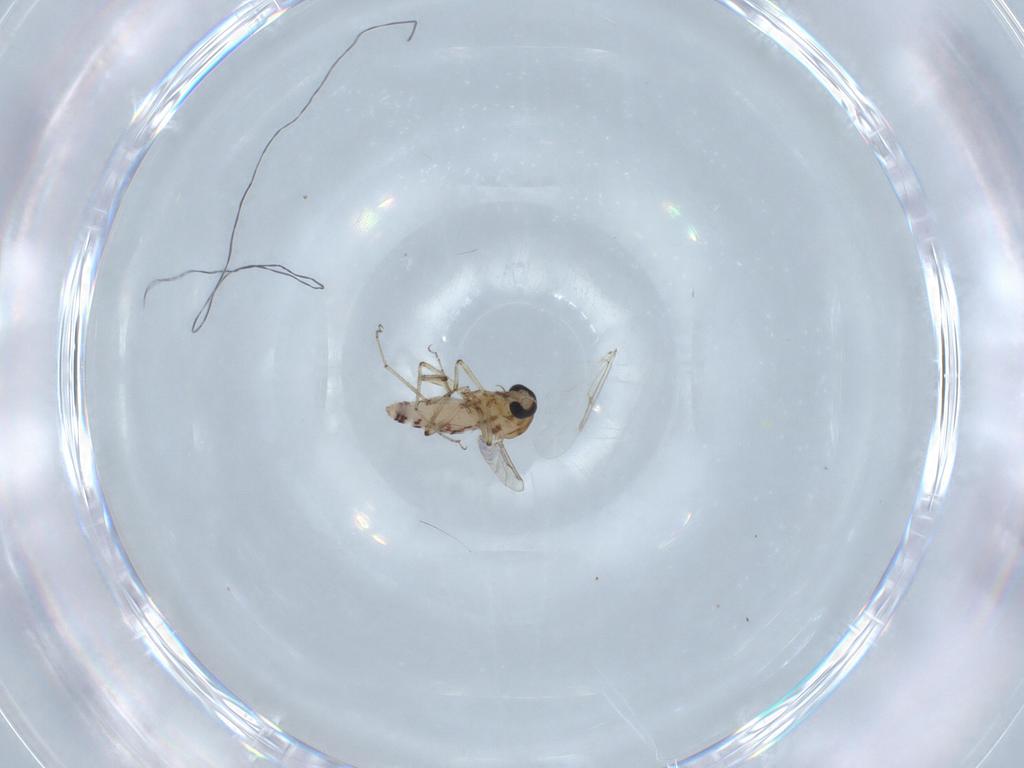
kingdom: Animalia
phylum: Arthropoda
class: Insecta
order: Diptera
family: Ceratopogonidae
